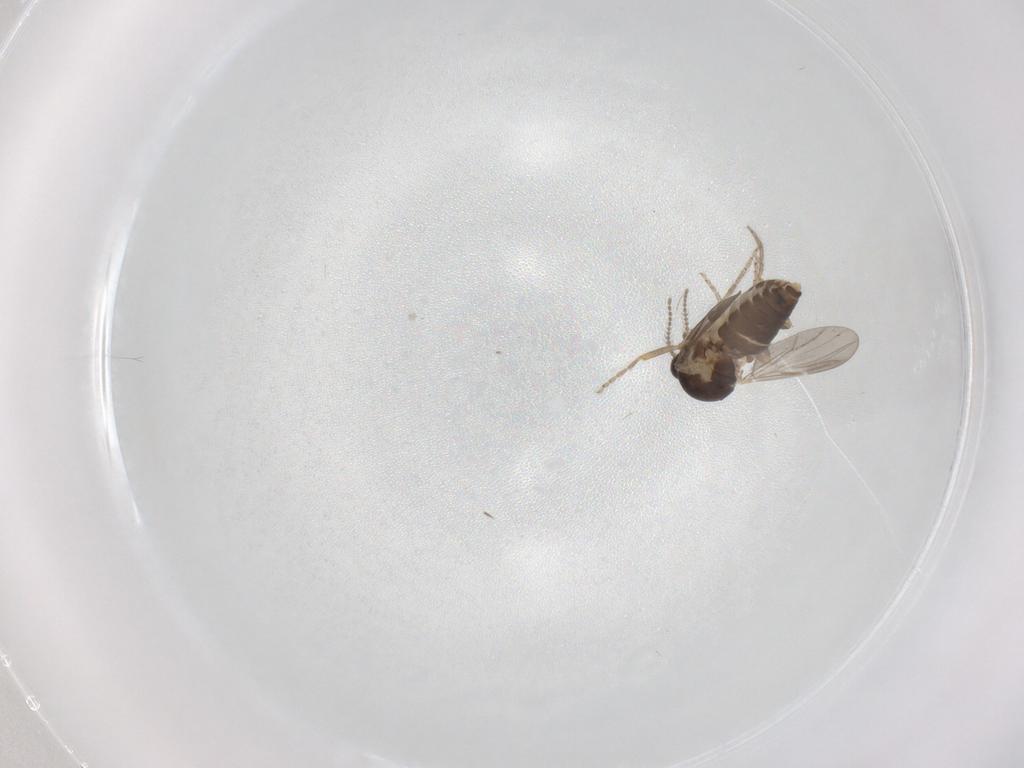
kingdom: Animalia
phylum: Arthropoda
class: Insecta
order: Diptera
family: Ceratopogonidae
